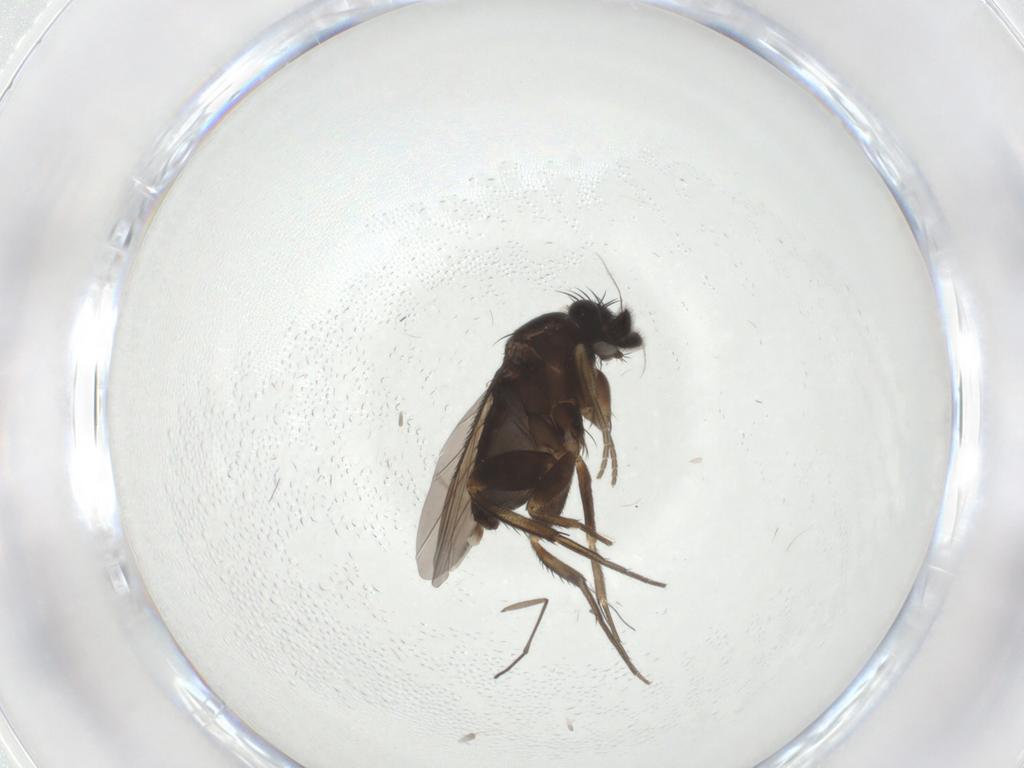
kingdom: Animalia
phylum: Arthropoda
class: Insecta
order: Diptera
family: Phoridae
